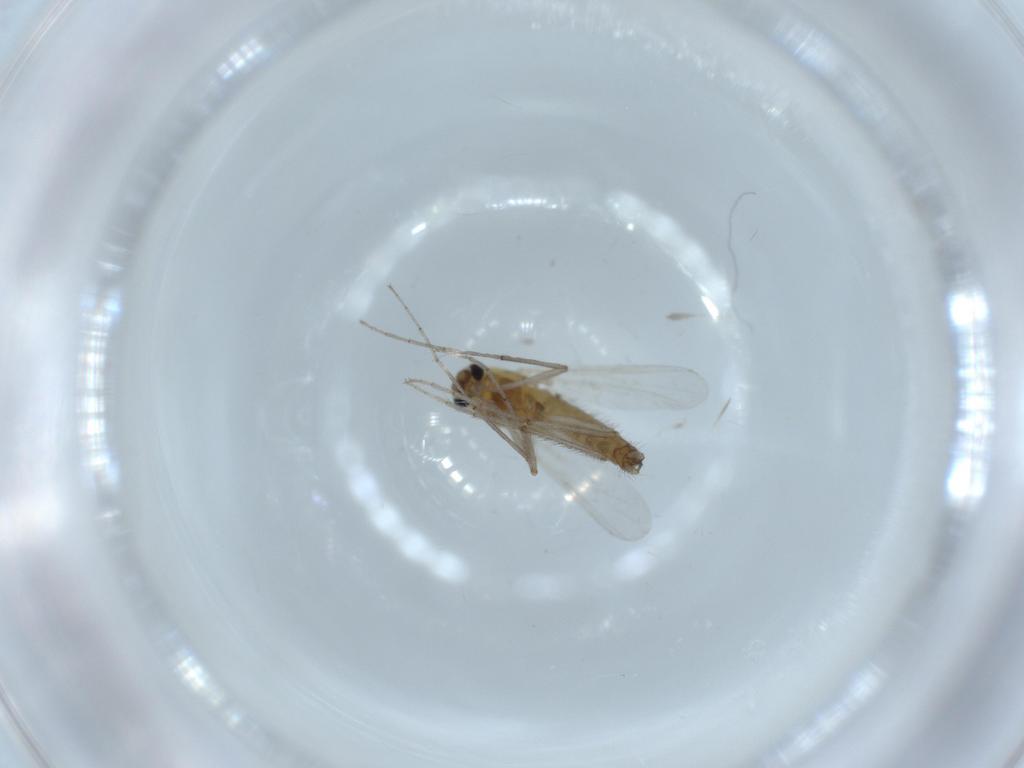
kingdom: Animalia
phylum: Arthropoda
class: Insecta
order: Diptera
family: Chironomidae
